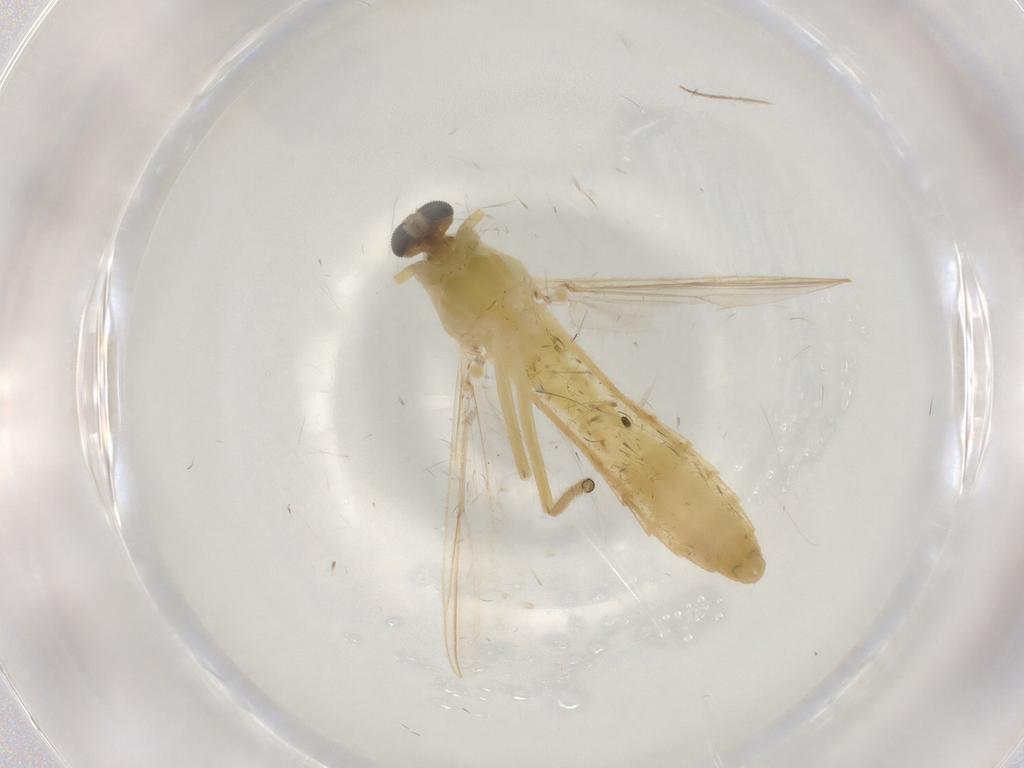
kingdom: Animalia
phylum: Arthropoda
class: Insecta
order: Diptera
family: Chironomidae
